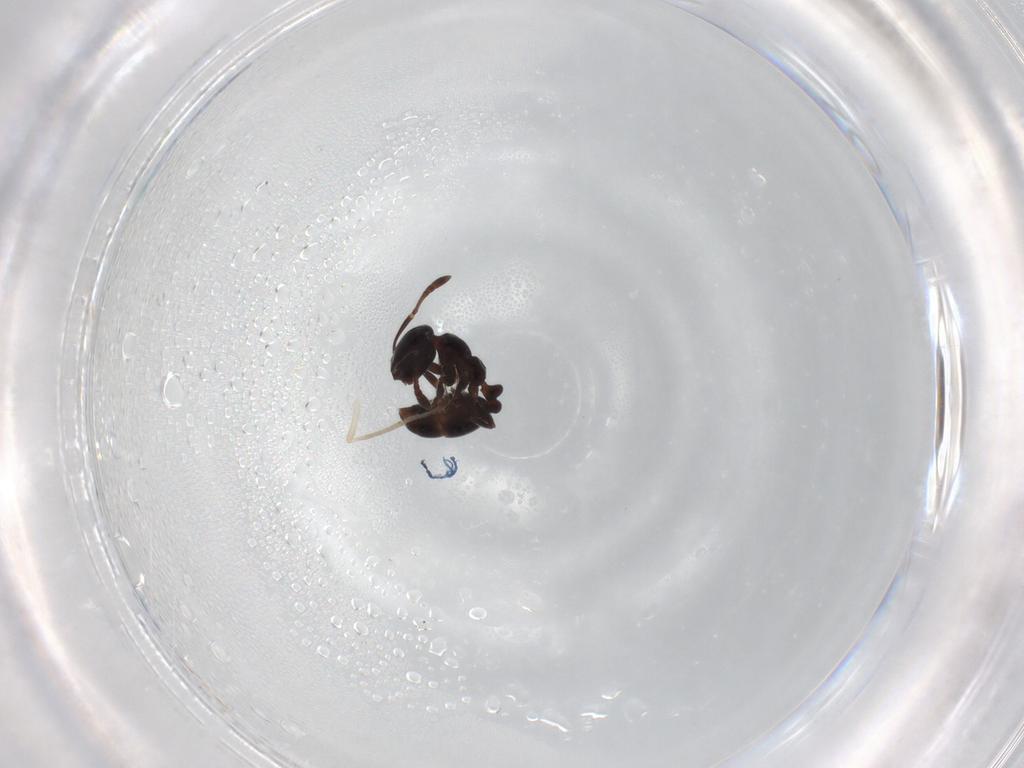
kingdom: Animalia
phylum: Arthropoda
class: Insecta
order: Hymenoptera
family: Formicidae
